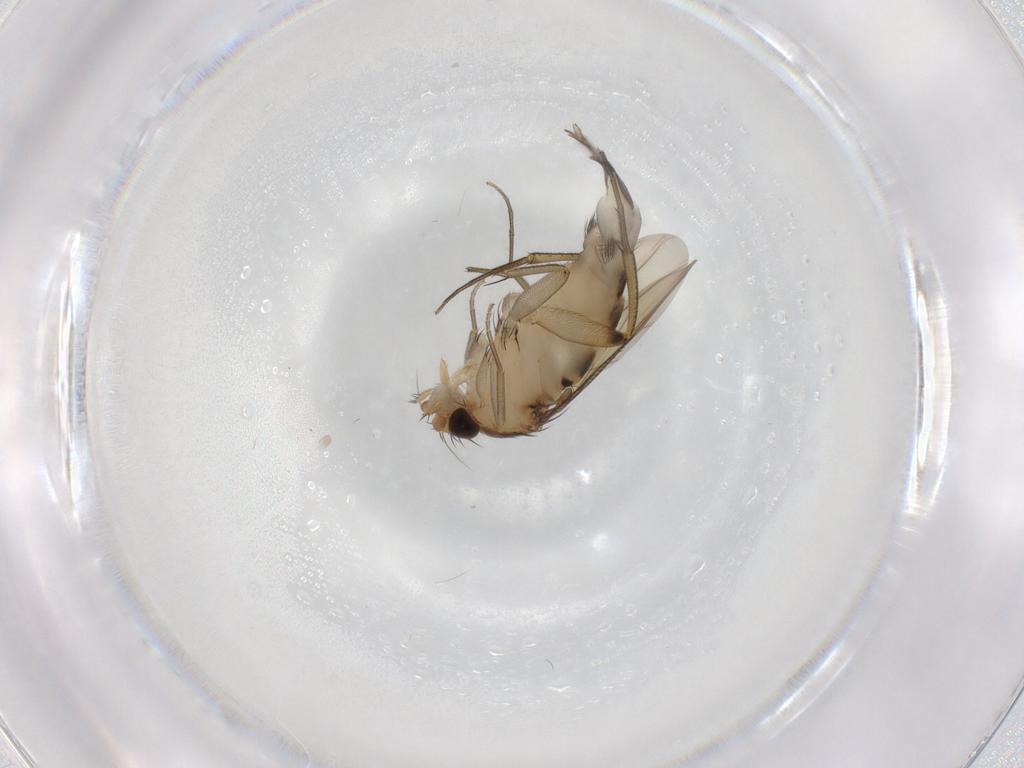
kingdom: Animalia
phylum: Arthropoda
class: Insecta
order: Diptera
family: Phoridae
